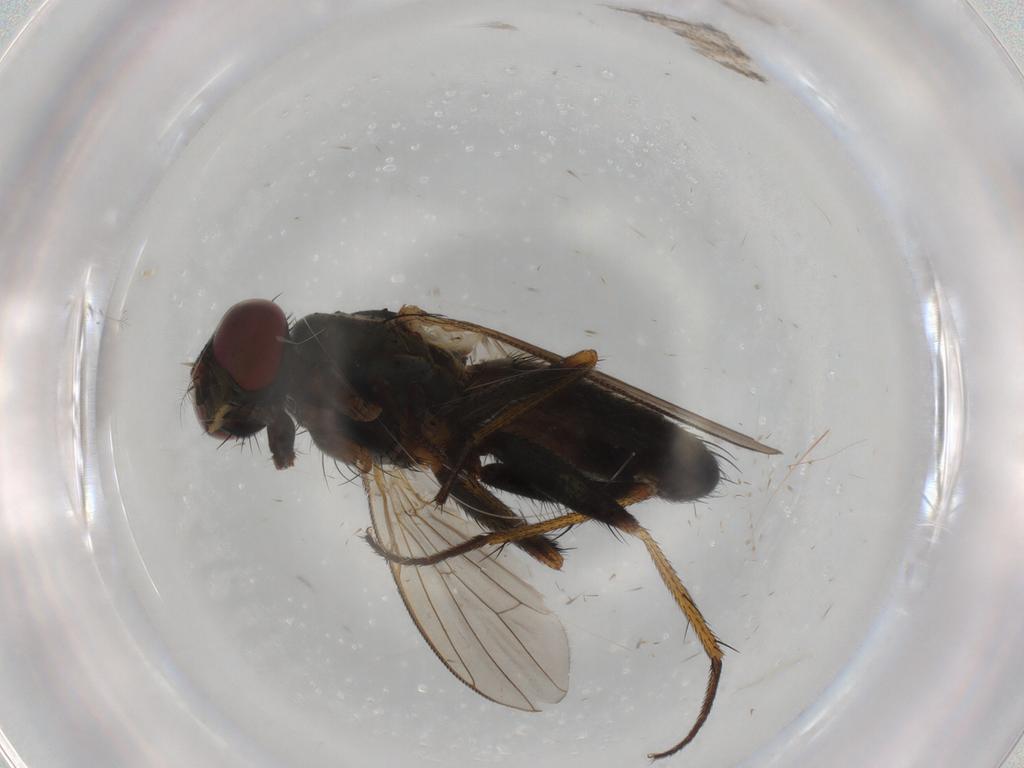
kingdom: Animalia
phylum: Arthropoda
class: Insecta
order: Diptera
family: Muscidae
